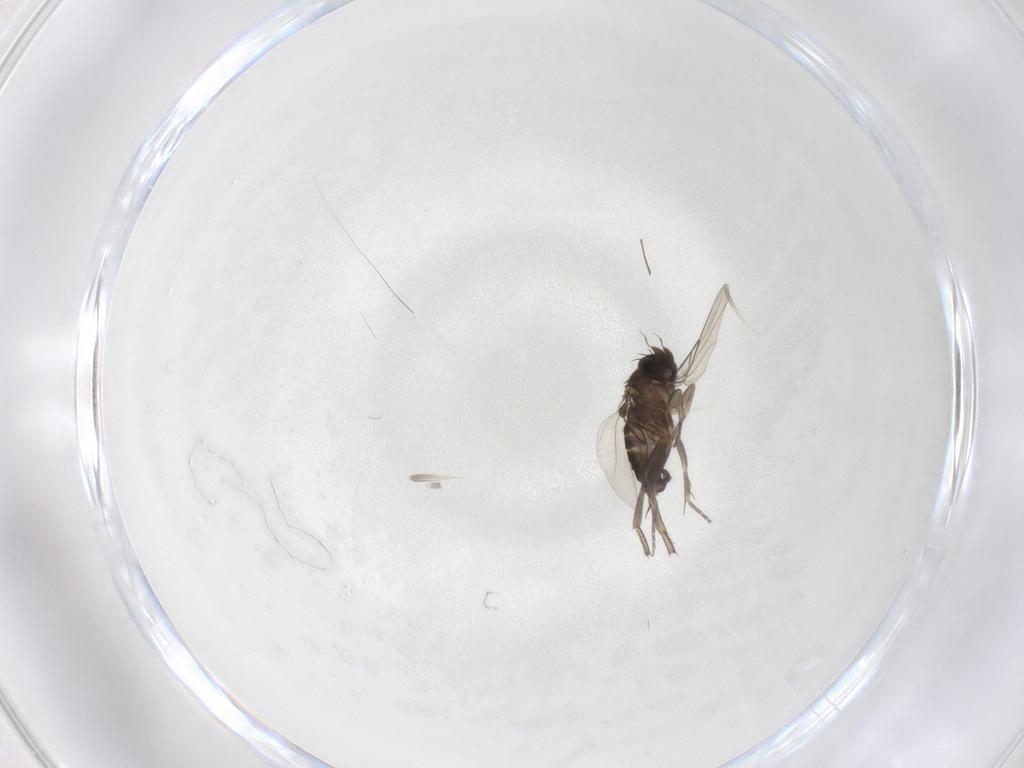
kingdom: Animalia
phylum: Arthropoda
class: Insecta
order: Diptera
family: Phoridae
